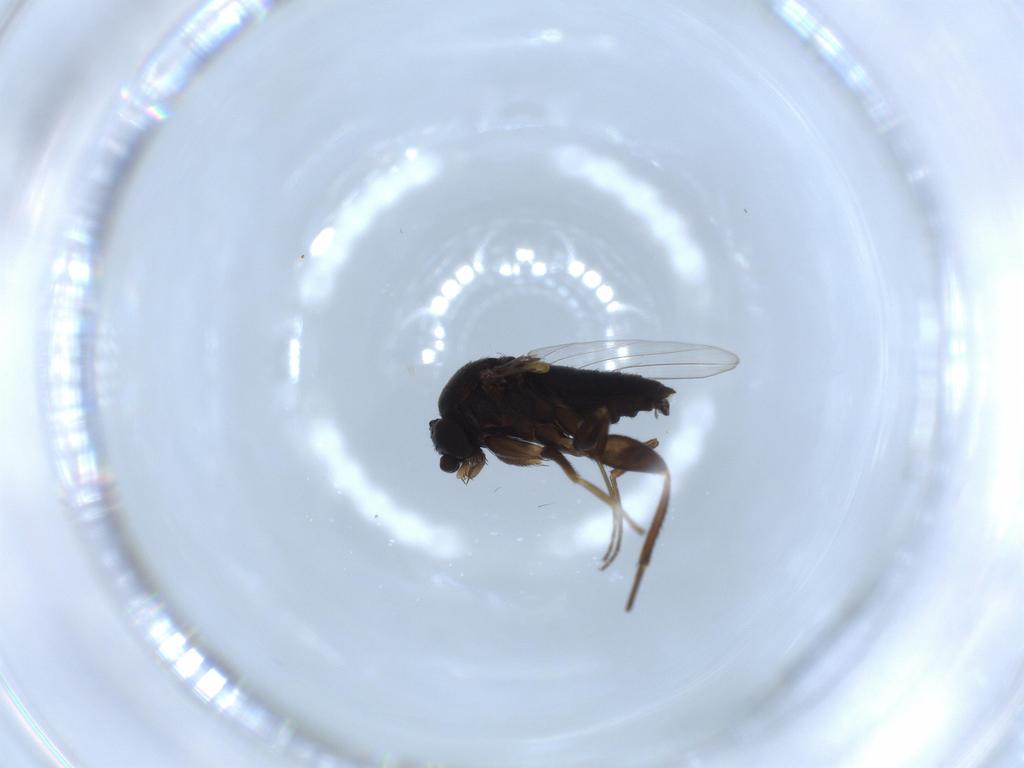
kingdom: Animalia
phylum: Arthropoda
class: Insecta
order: Diptera
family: Phoridae
